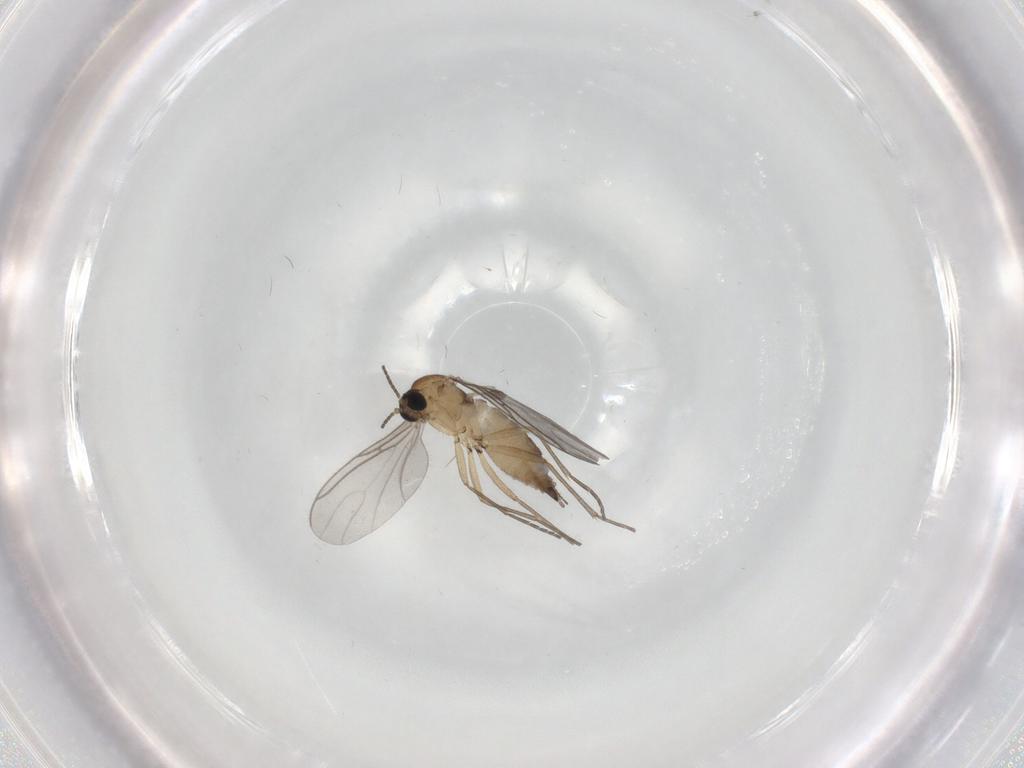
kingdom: Animalia
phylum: Arthropoda
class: Insecta
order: Diptera
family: Sciaridae
